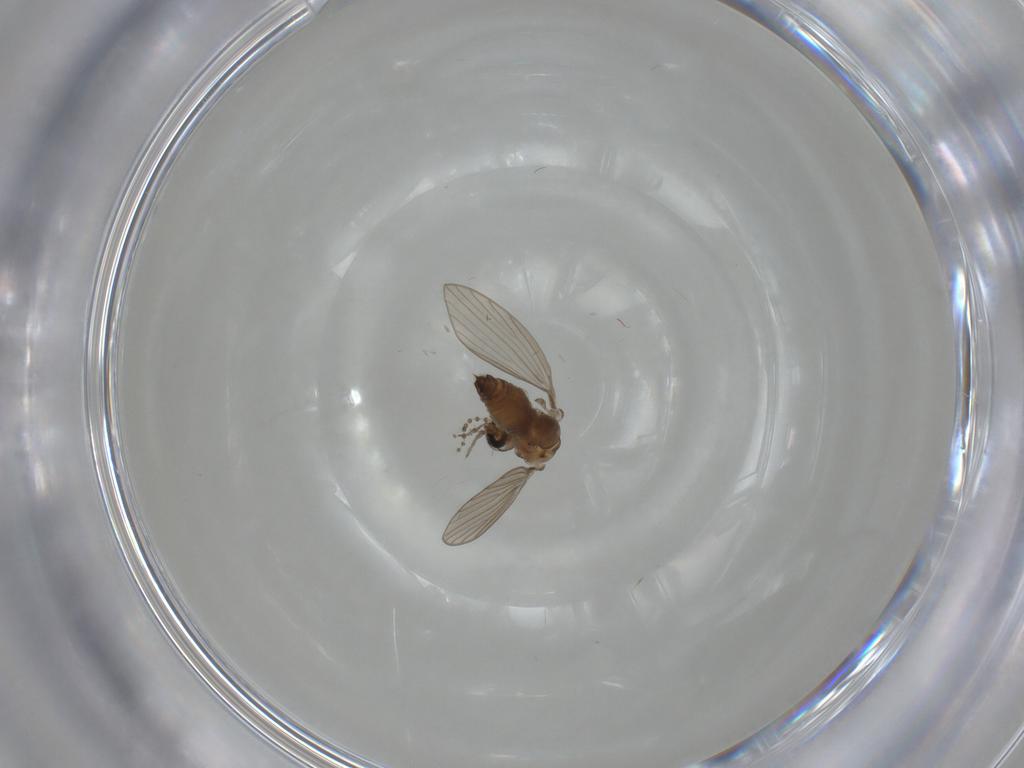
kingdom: Animalia
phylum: Arthropoda
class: Insecta
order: Diptera
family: Psychodidae
